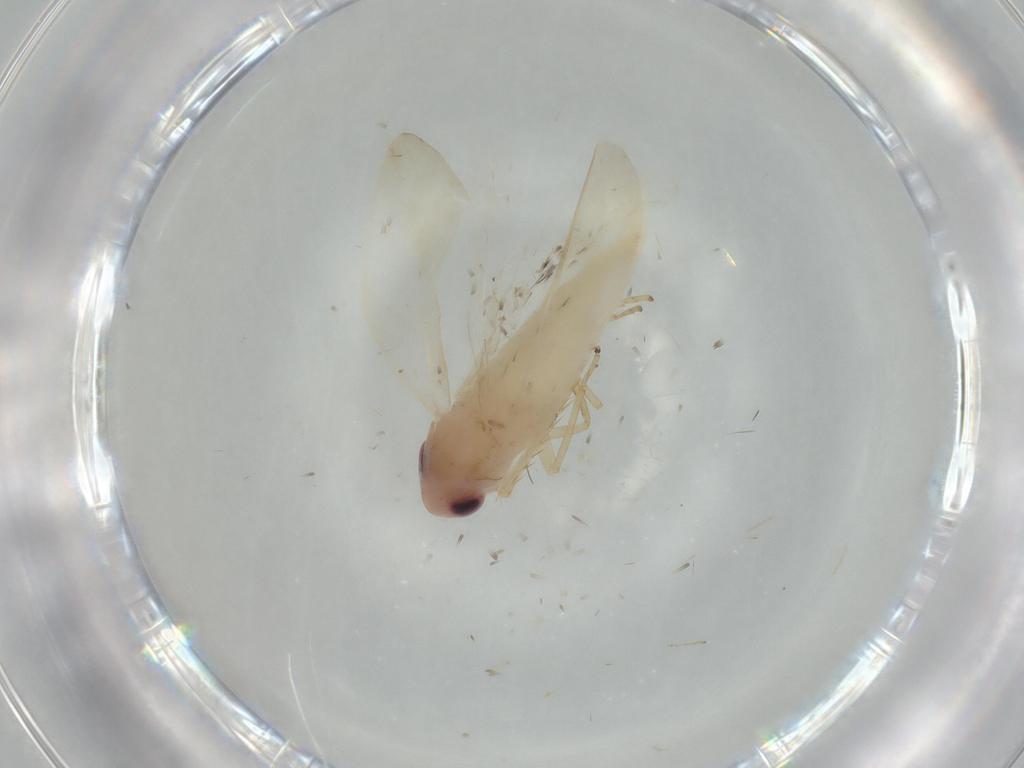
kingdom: Animalia
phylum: Arthropoda
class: Insecta
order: Hemiptera
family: Cicadellidae
